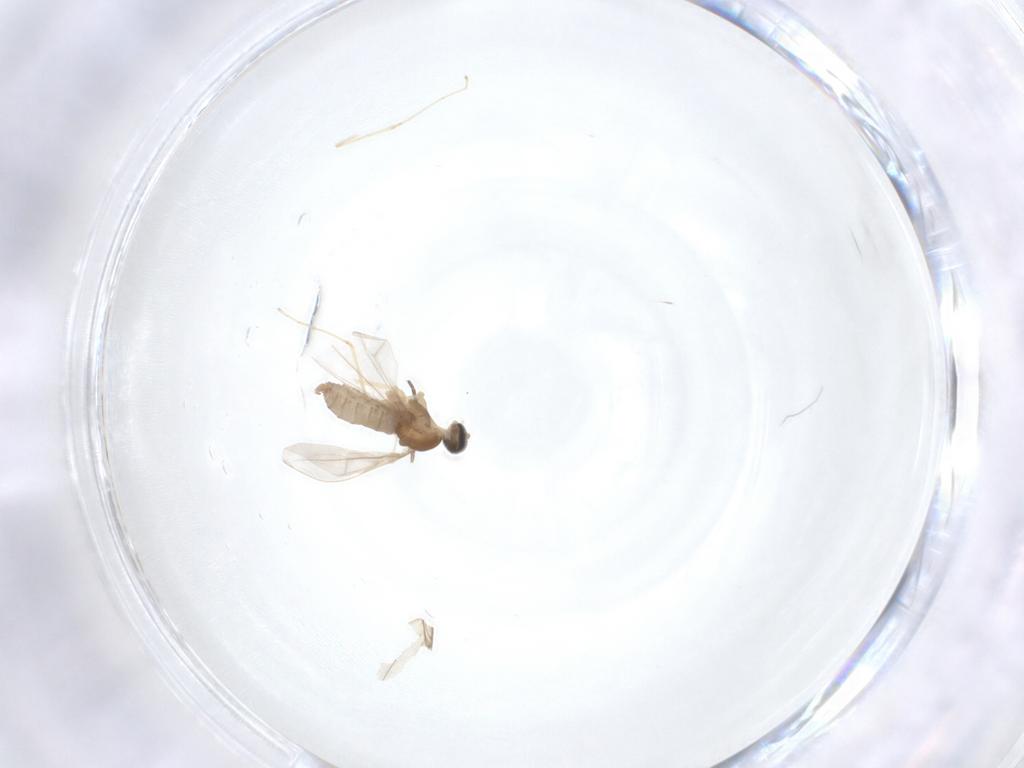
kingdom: Animalia
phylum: Arthropoda
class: Insecta
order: Diptera
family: Cecidomyiidae
